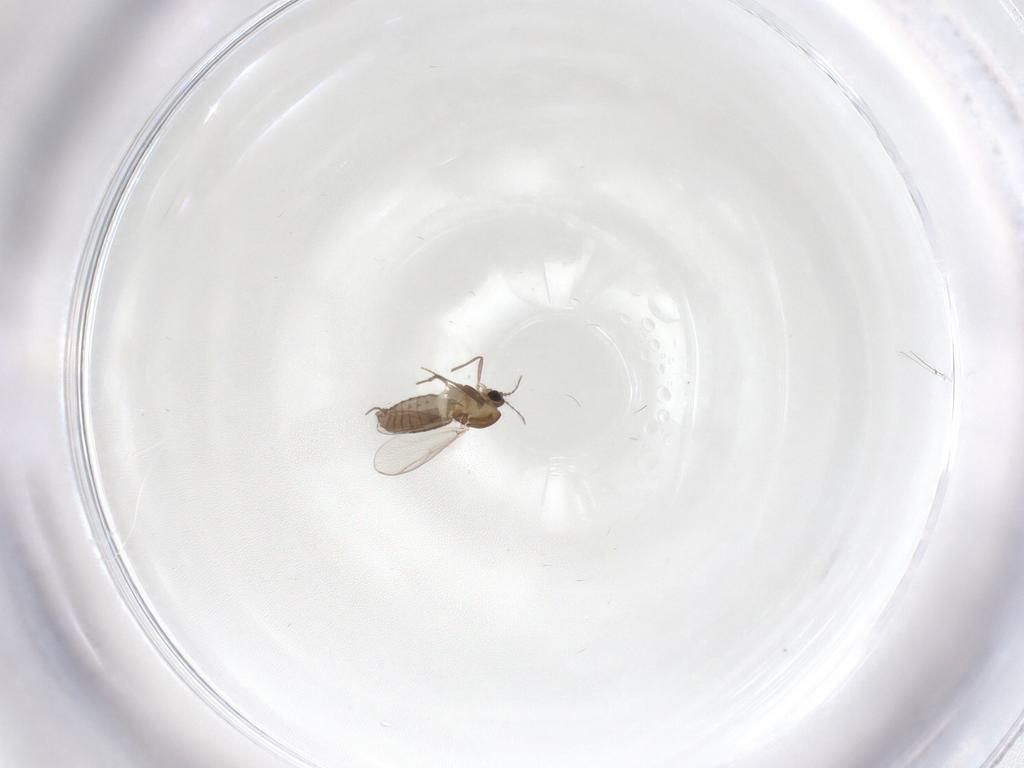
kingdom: Animalia
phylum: Arthropoda
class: Insecta
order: Diptera
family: Chironomidae
